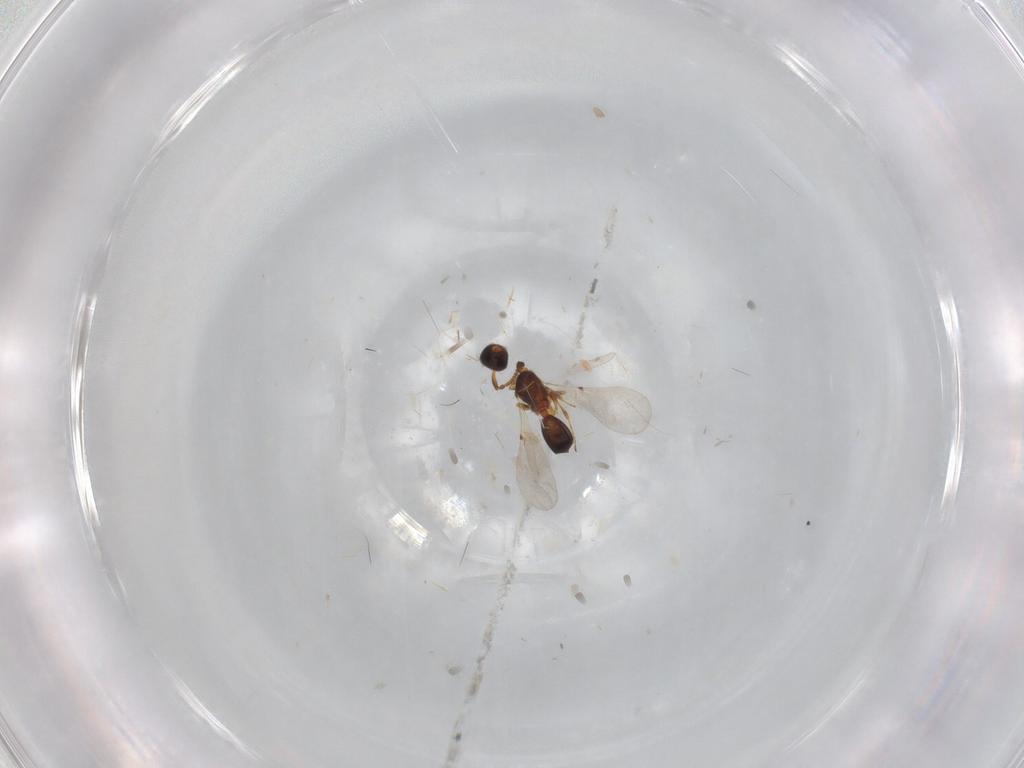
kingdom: Animalia
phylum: Arthropoda
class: Insecta
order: Hymenoptera
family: Diapriidae
